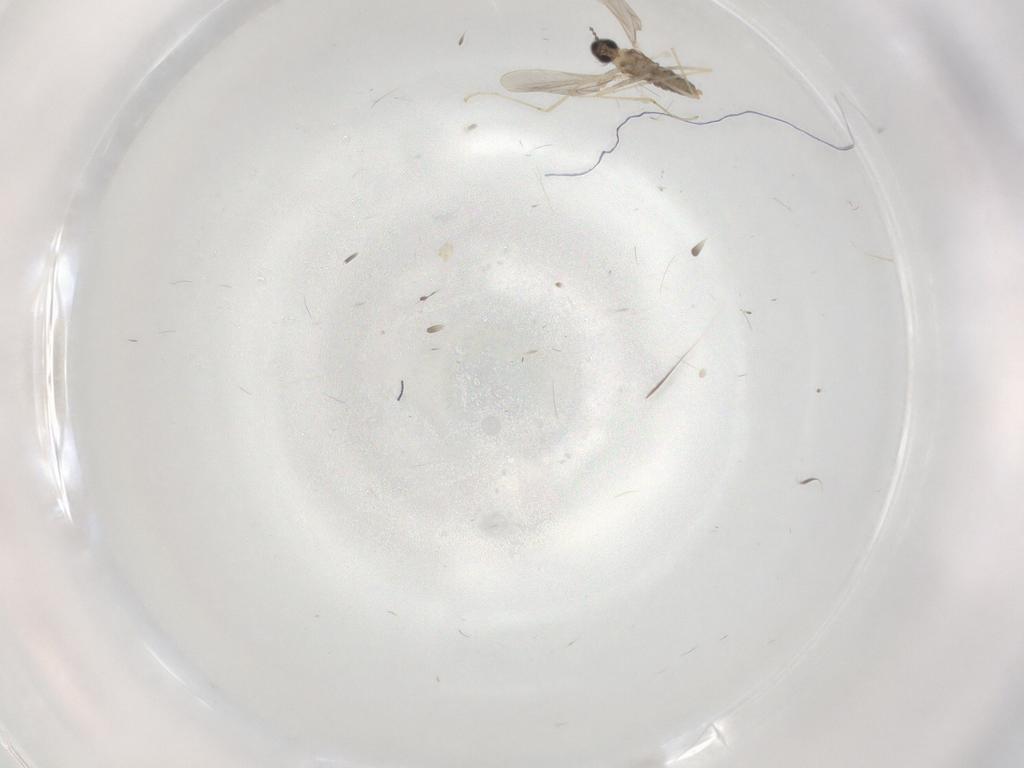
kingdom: Animalia
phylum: Arthropoda
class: Insecta
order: Diptera
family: Cecidomyiidae
